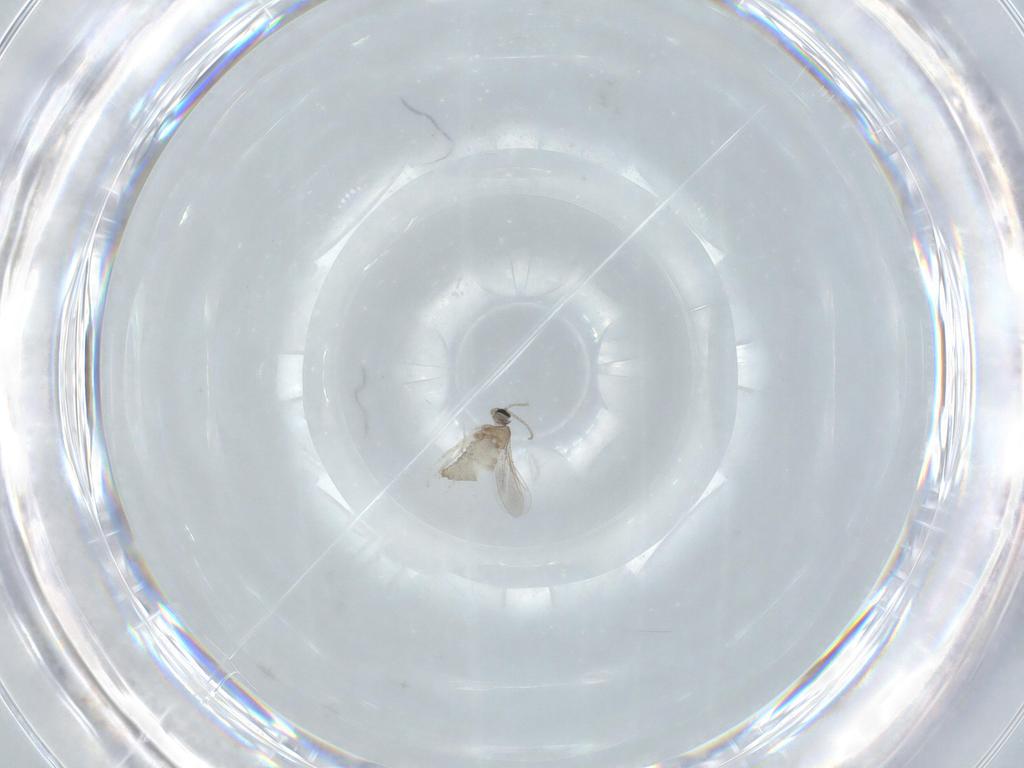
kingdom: Animalia
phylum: Arthropoda
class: Insecta
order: Diptera
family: Cecidomyiidae
